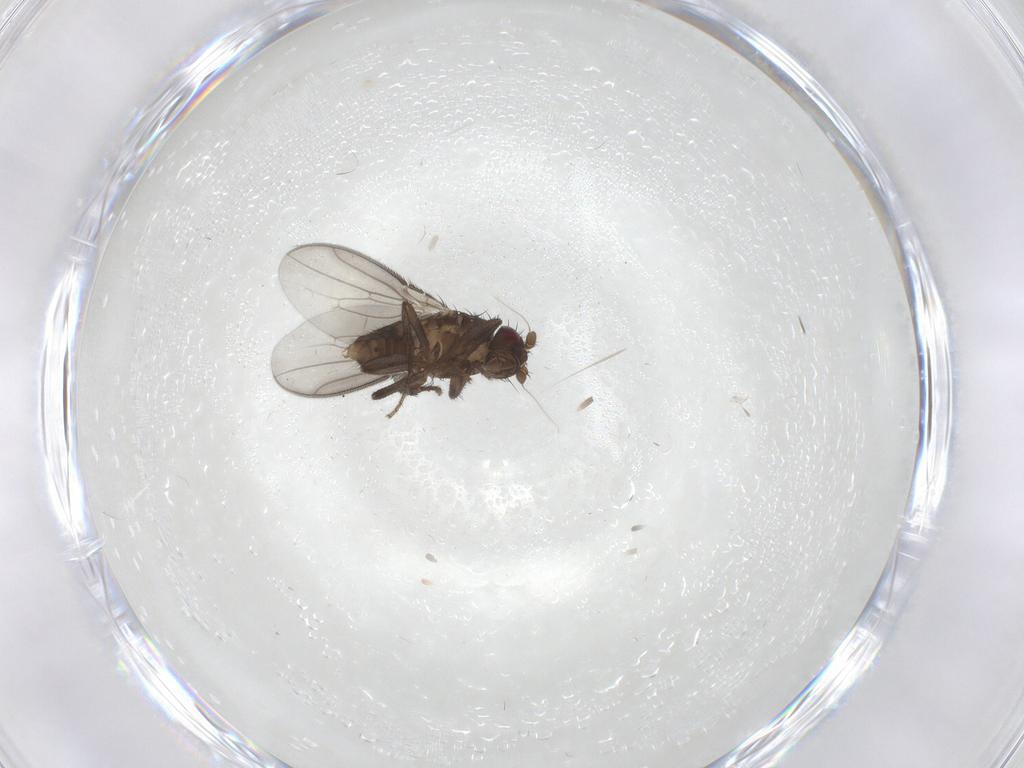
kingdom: Animalia
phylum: Arthropoda
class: Insecta
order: Diptera
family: Sphaeroceridae
